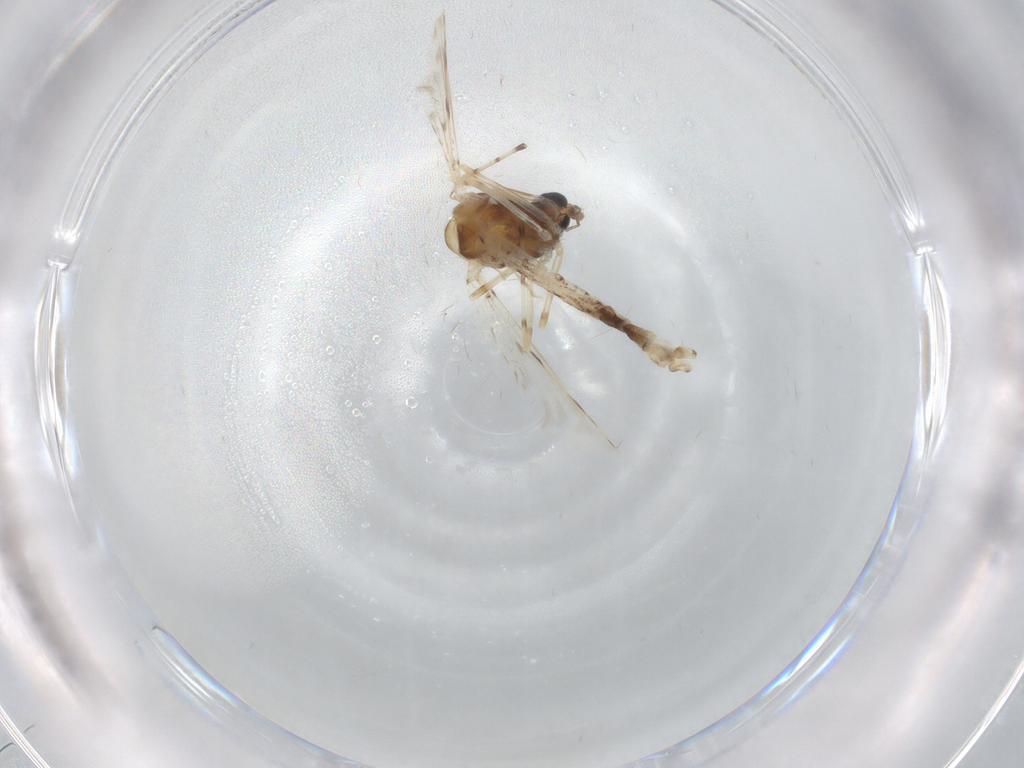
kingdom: Animalia
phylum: Arthropoda
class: Insecta
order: Diptera
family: Chironomidae
